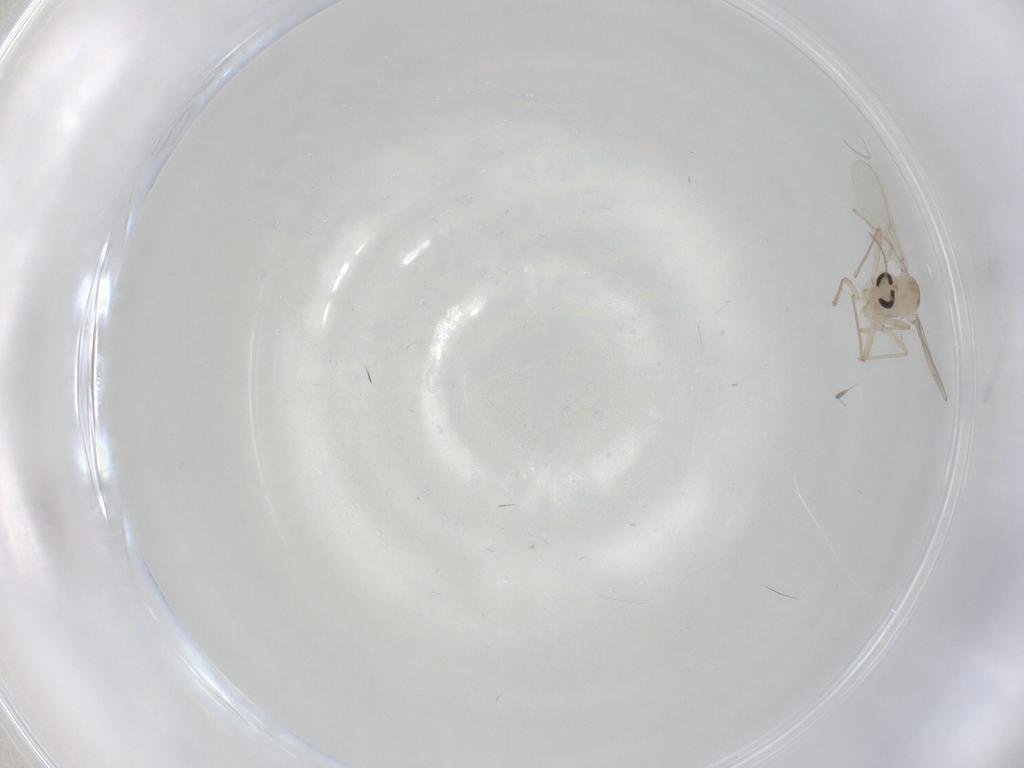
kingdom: Animalia
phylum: Arthropoda
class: Insecta
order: Diptera
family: Chironomidae
